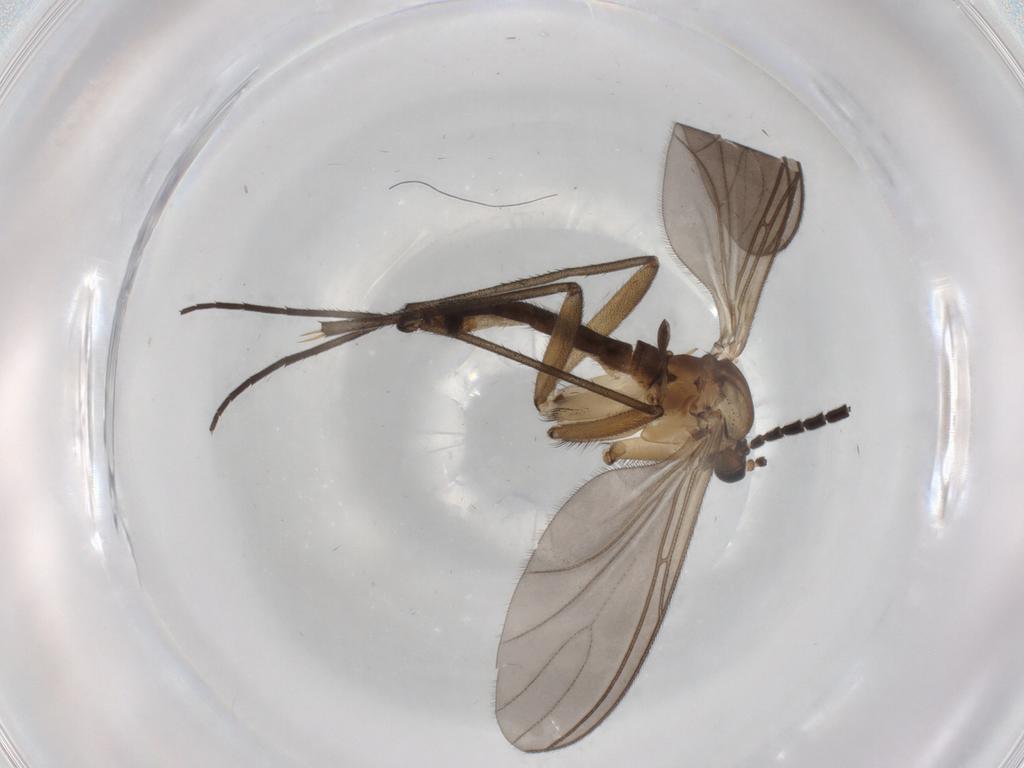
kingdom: Animalia
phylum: Arthropoda
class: Insecta
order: Diptera
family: Sciaridae
